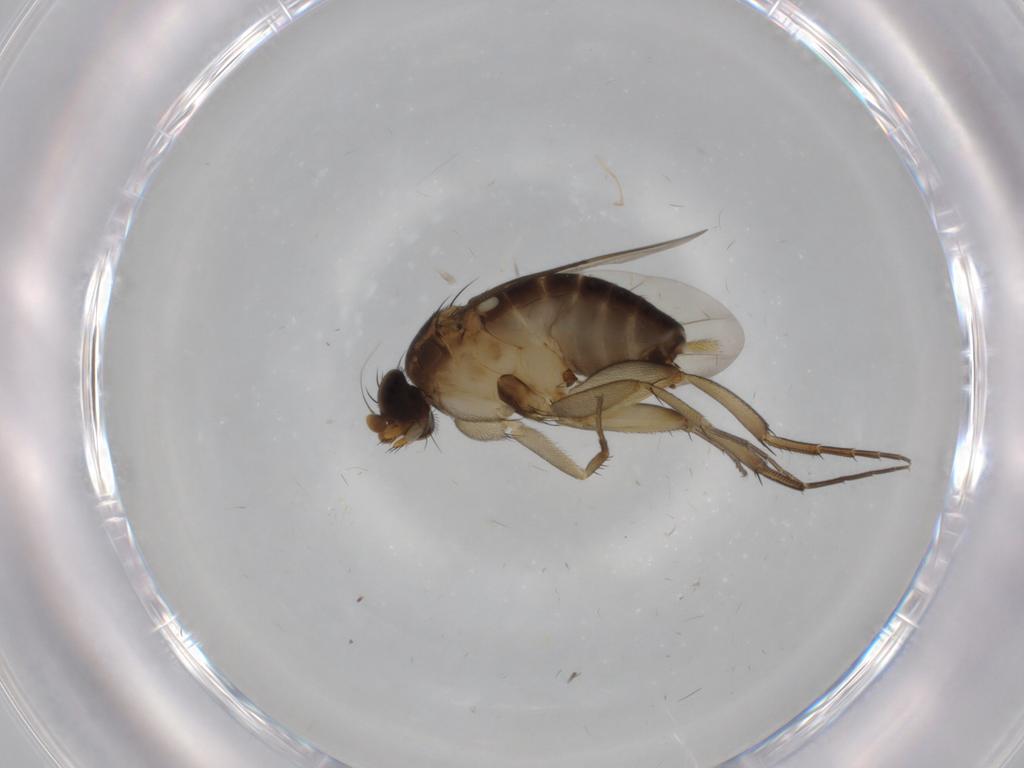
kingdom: Animalia
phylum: Arthropoda
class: Insecta
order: Diptera
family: Phoridae
